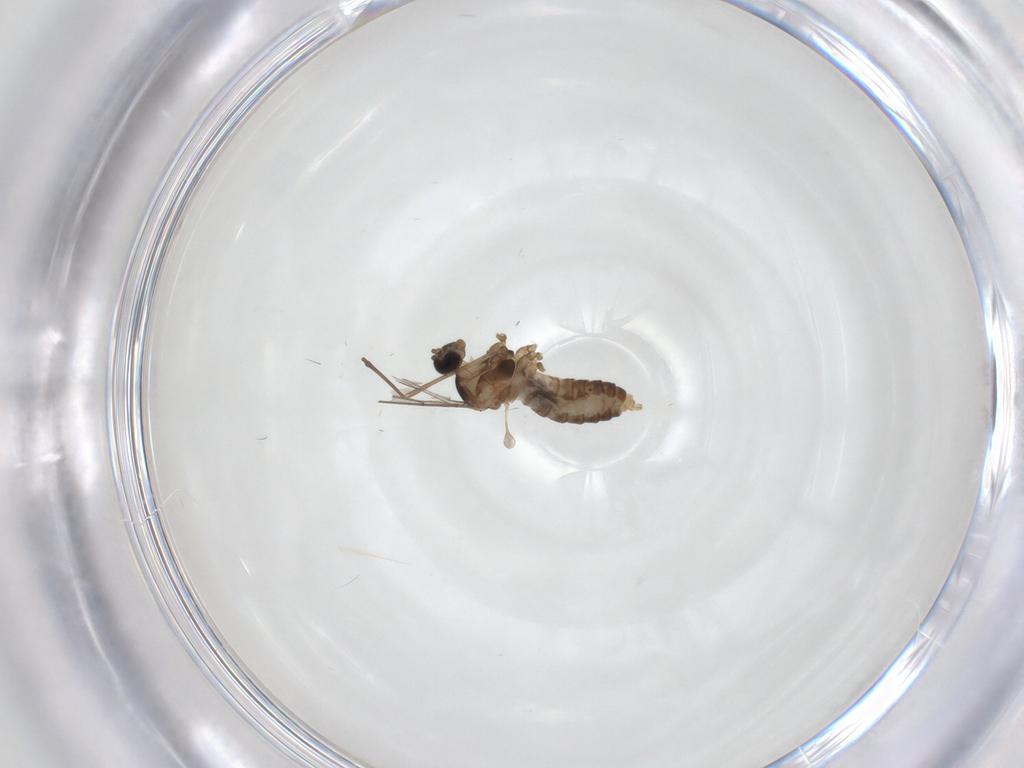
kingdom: Animalia
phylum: Arthropoda
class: Insecta
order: Diptera
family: Cecidomyiidae
